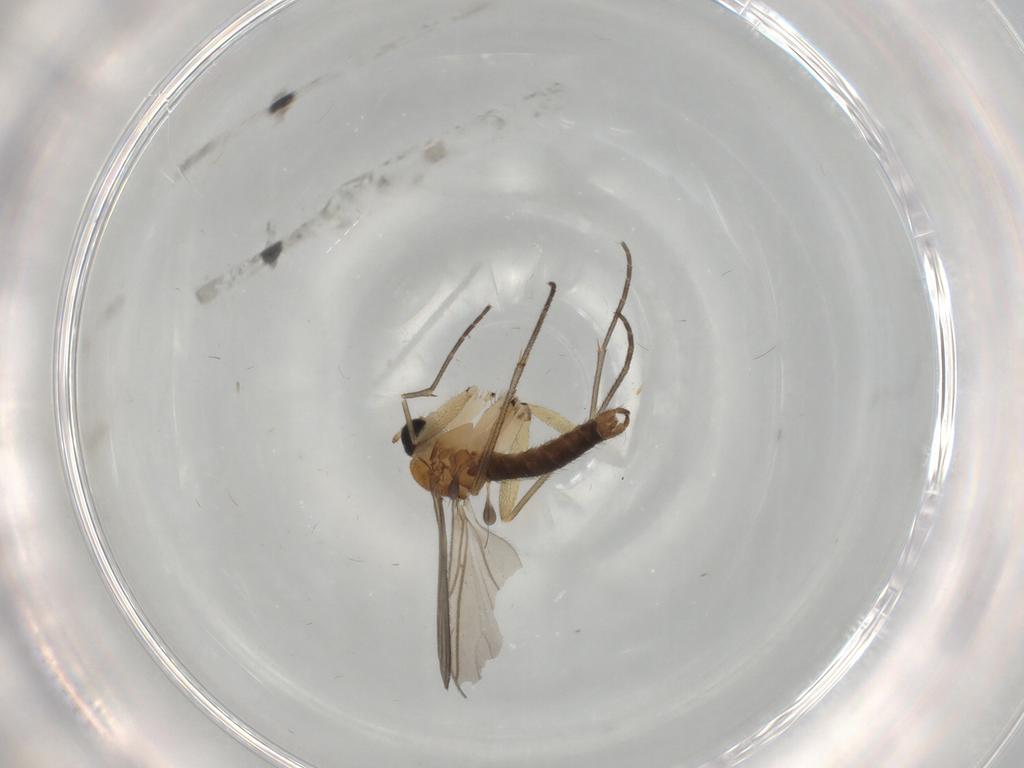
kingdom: Animalia
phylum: Arthropoda
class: Insecta
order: Diptera
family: Sciaridae
